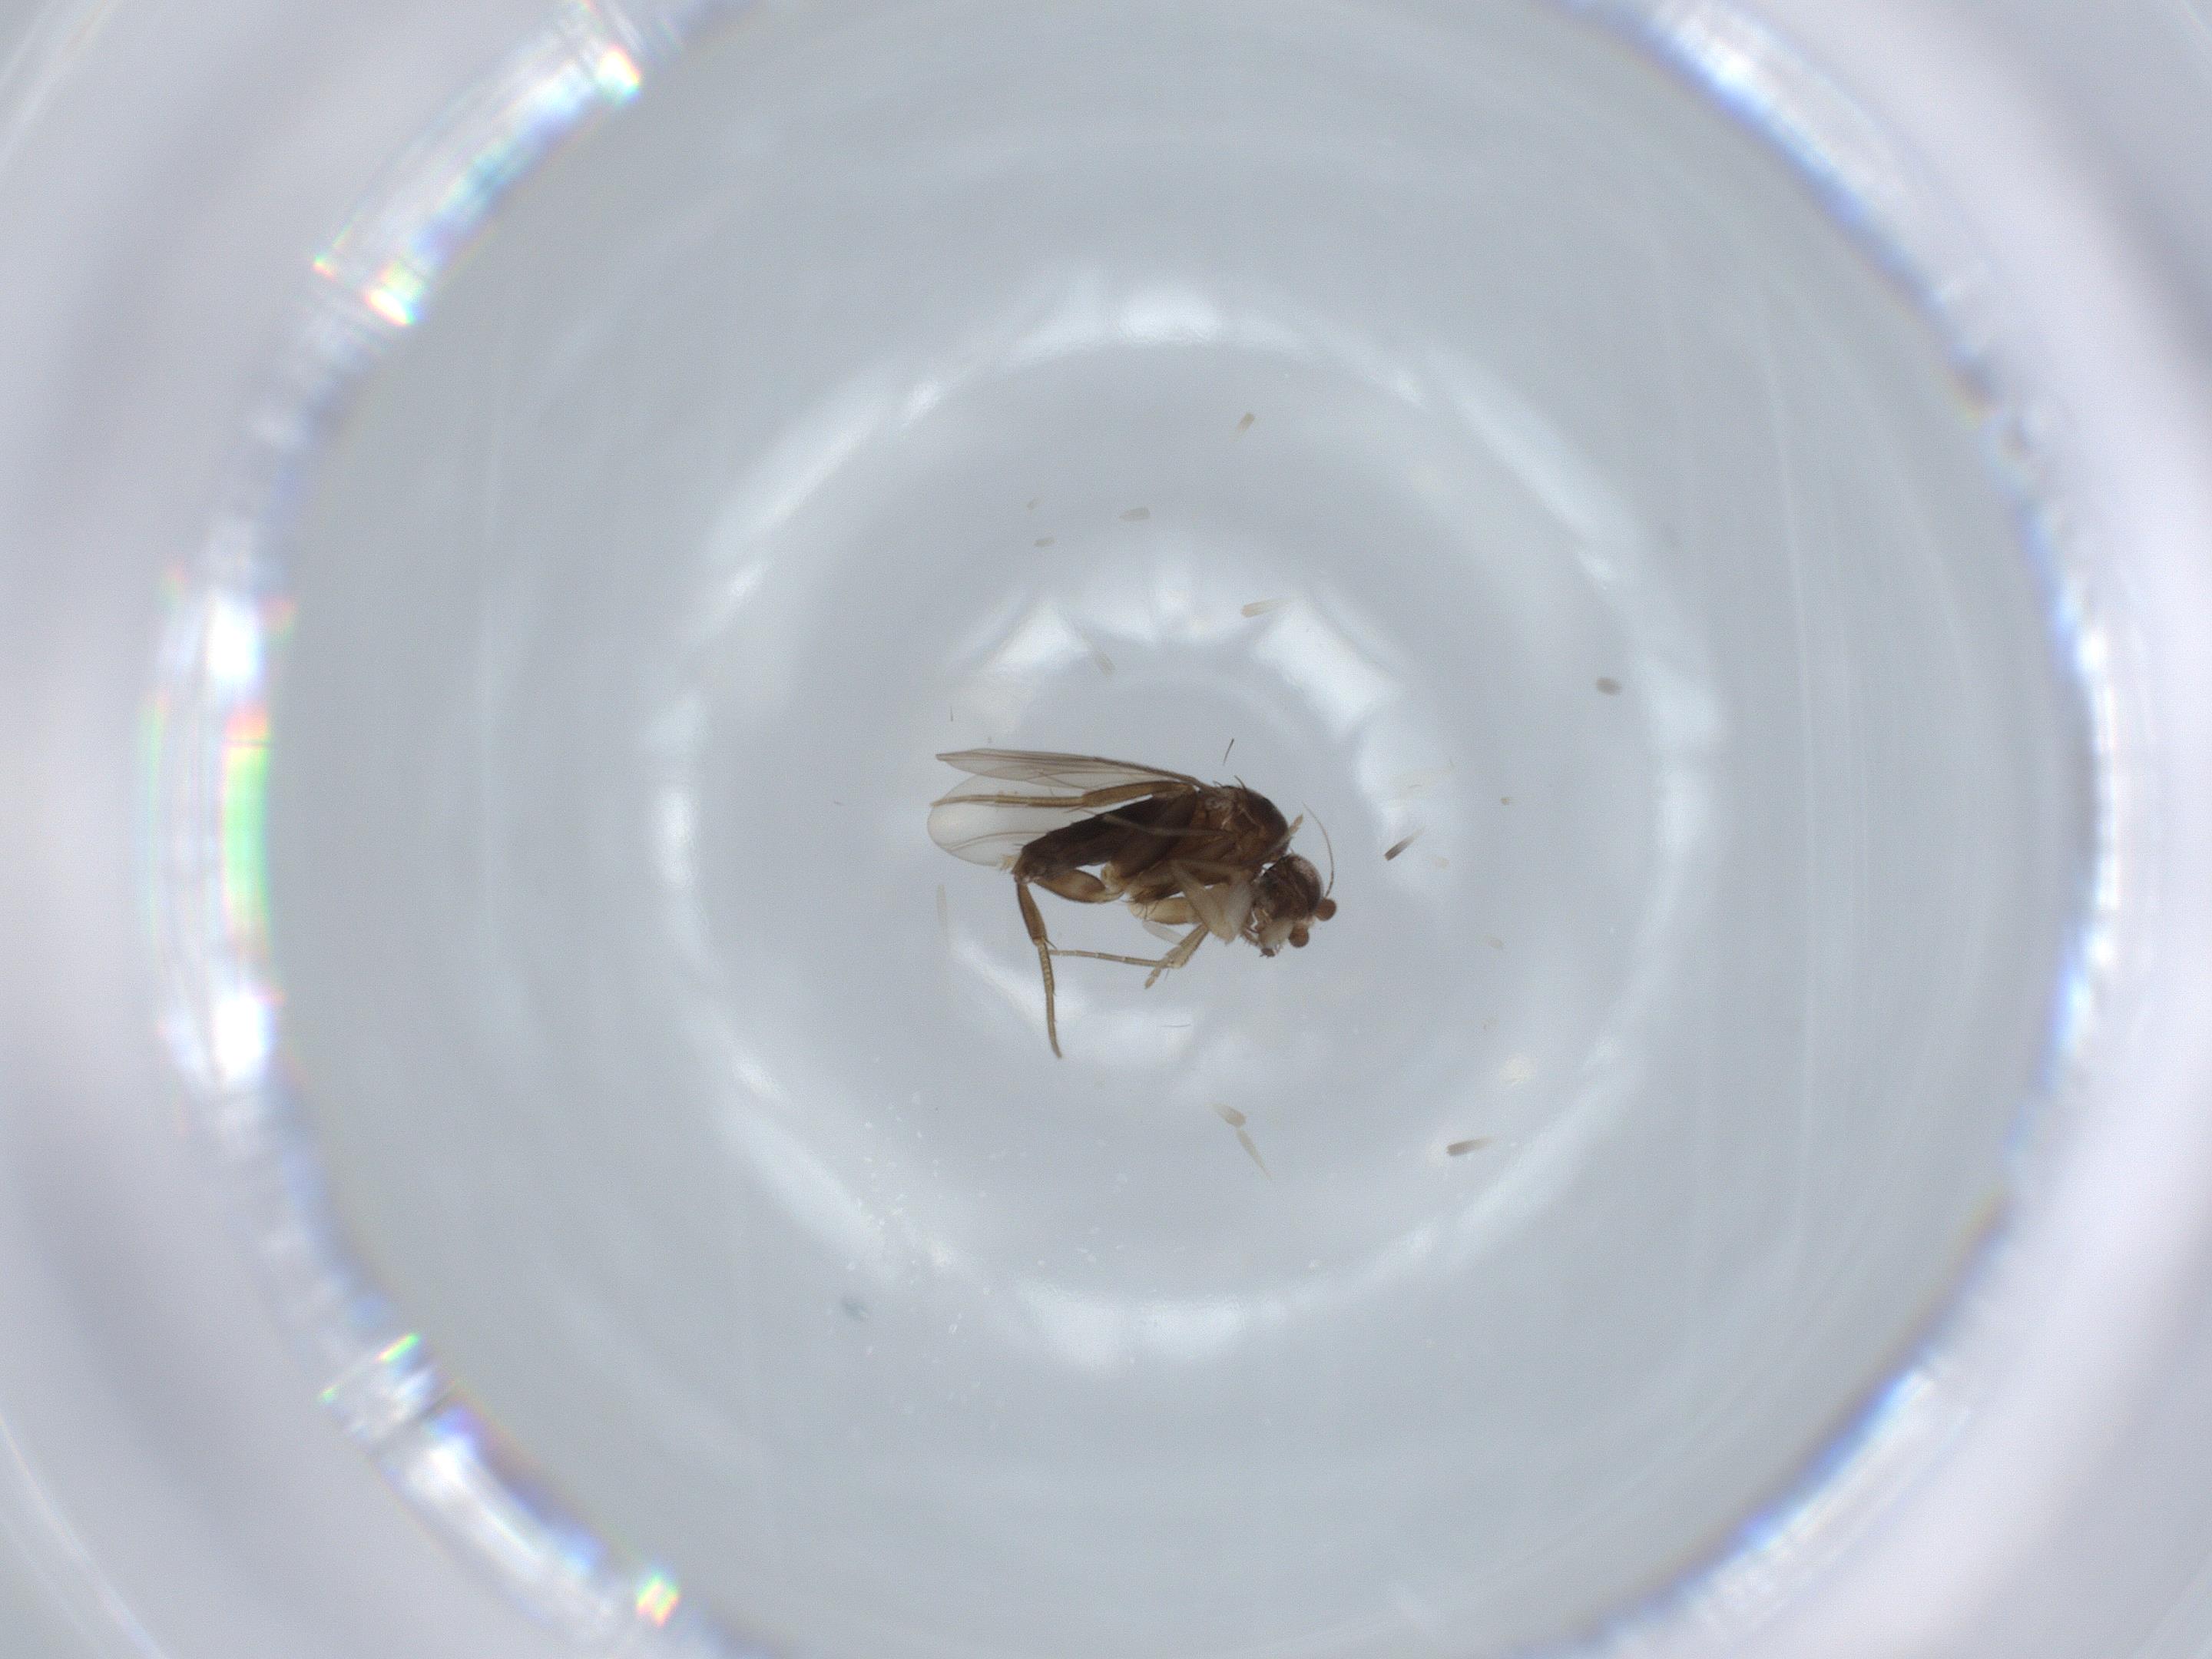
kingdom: Animalia
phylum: Arthropoda
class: Insecta
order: Diptera
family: Phoridae
